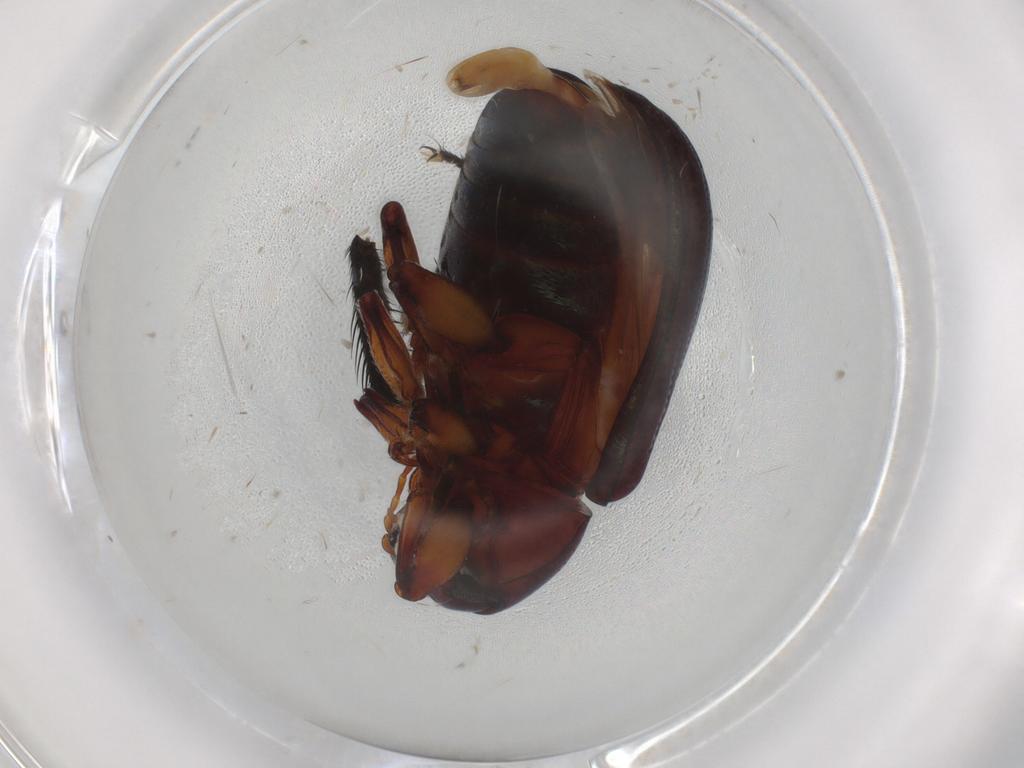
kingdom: Animalia
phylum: Arthropoda
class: Insecta
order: Coleoptera
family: Chrysomelidae
